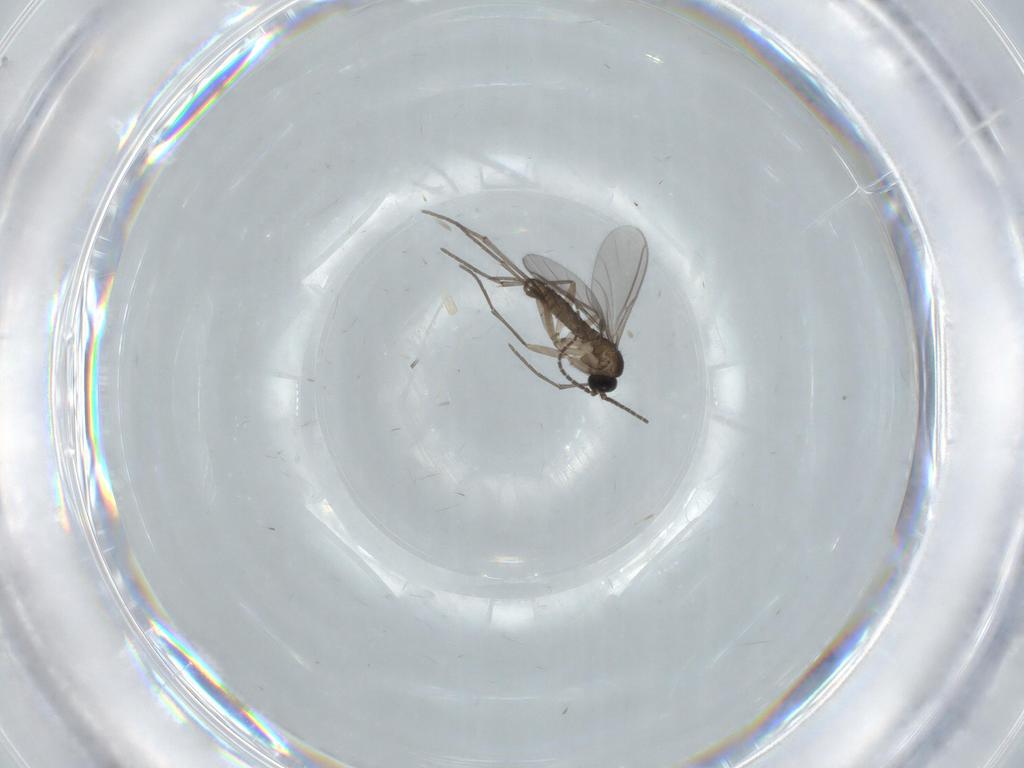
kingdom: Animalia
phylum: Arthropoda
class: Insecta
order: Diptera
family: Sciaridae
